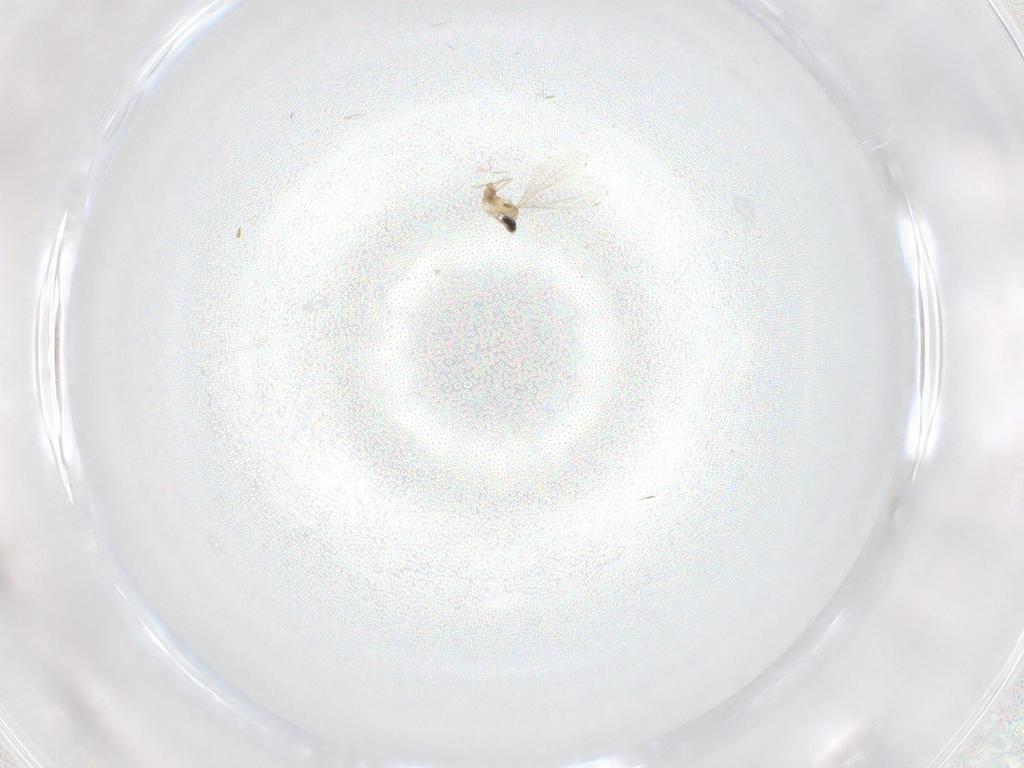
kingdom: Animalia
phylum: Arthropoda
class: Insecta
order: Diptera
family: Cecidomyiidae
